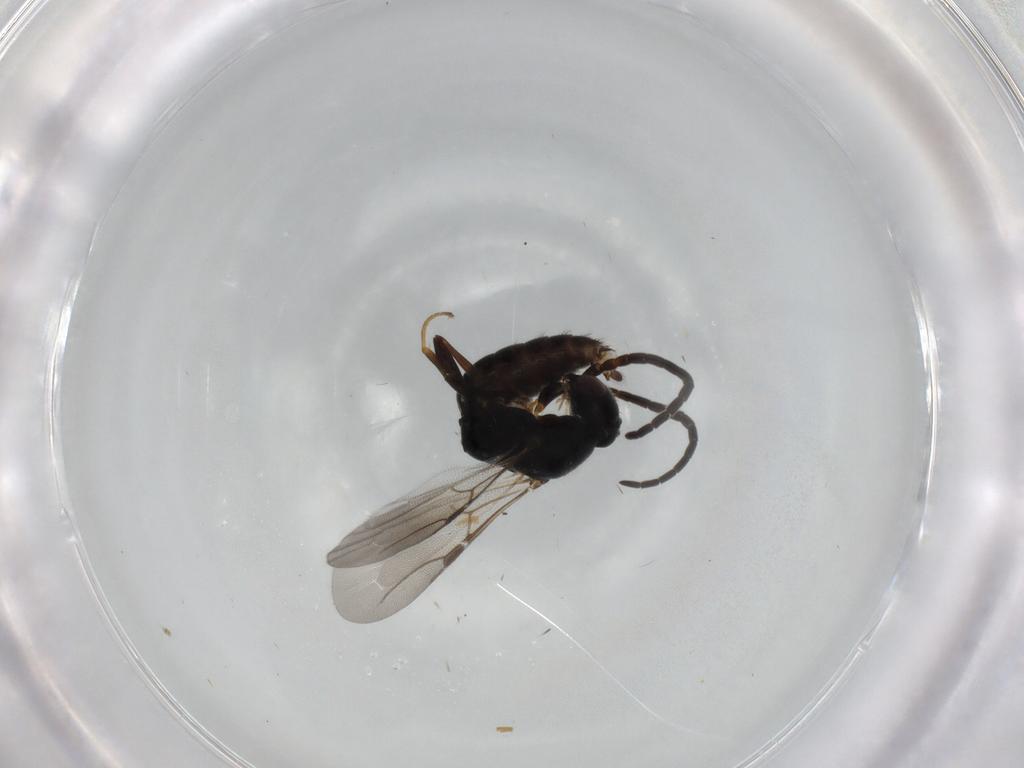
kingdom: Animalia
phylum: Arthropoda
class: Insecta
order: Hymenoptera
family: Bethylidae
